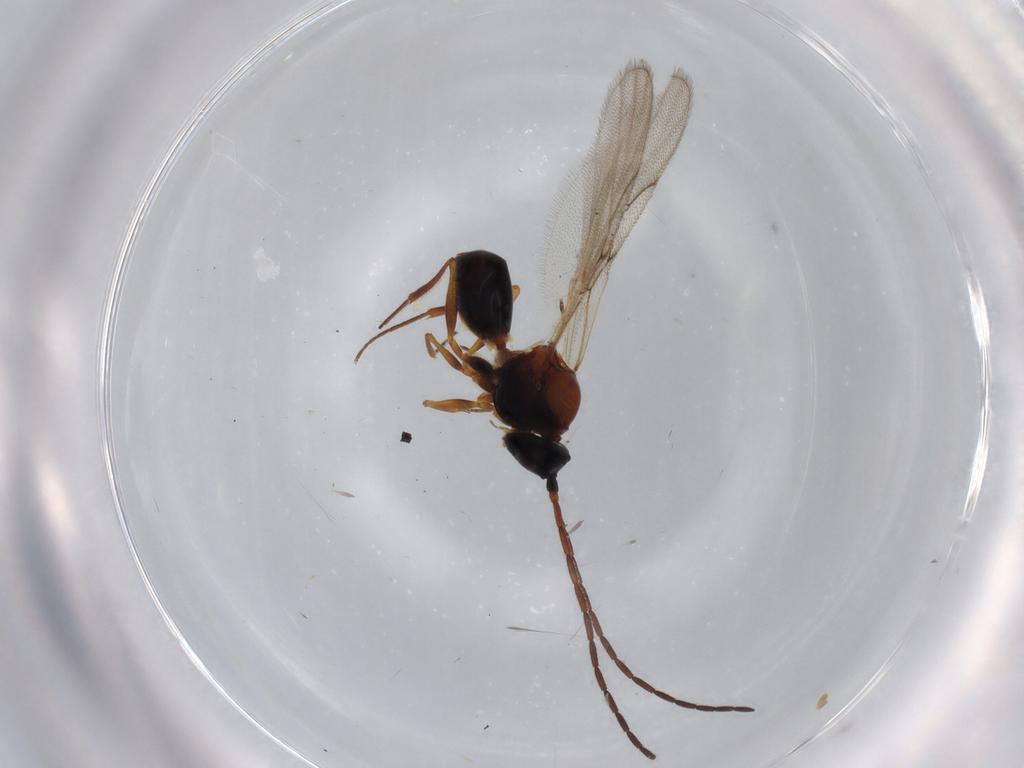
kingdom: Animalia
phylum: Arthropoda
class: Insecta
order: Hymenoptera
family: Figitidae
